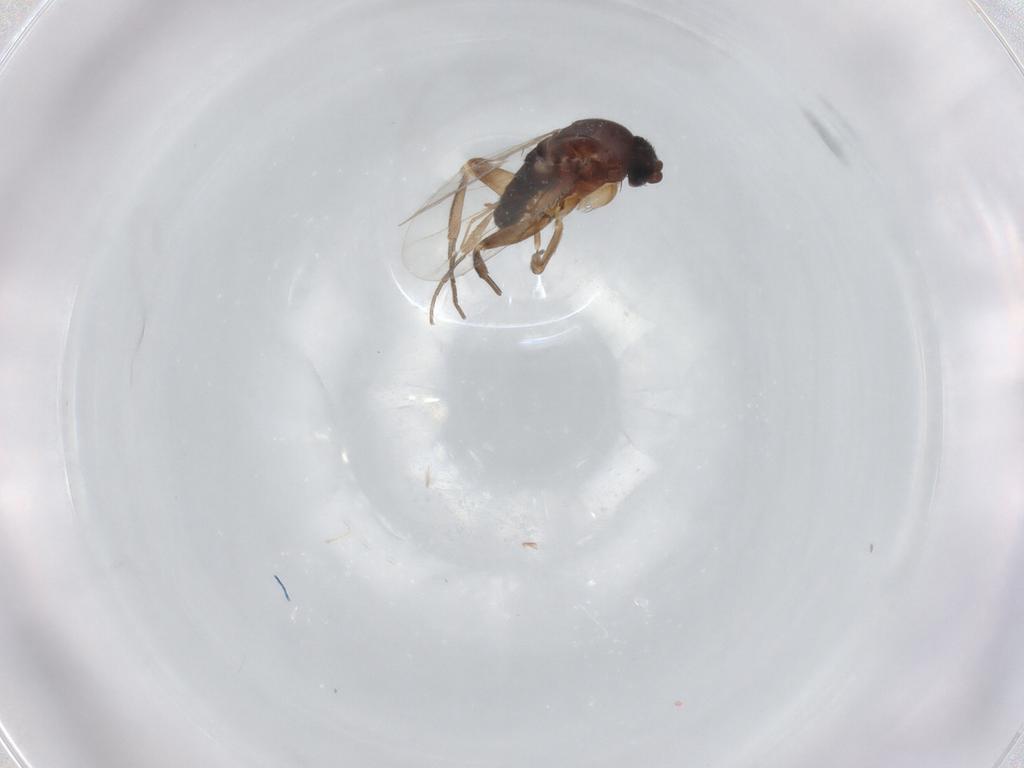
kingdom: Animalia
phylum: Arthropoda
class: Insecta
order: Diptera
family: Phoridae
